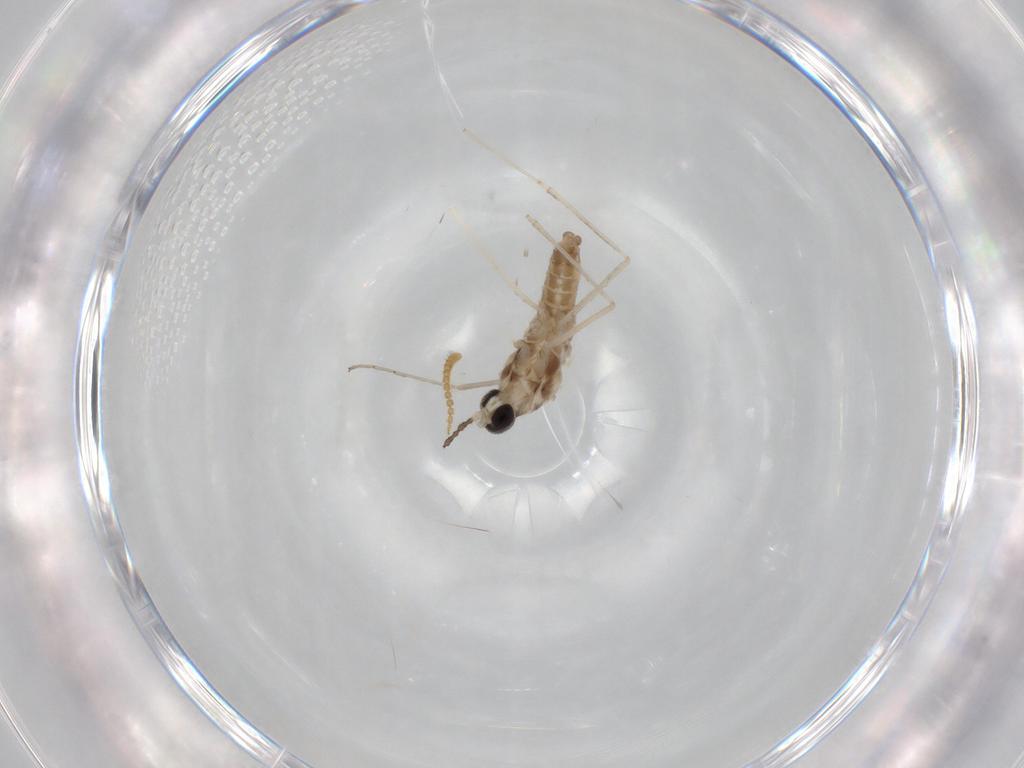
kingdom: Animalia
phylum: Arthropoda
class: Insecta
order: Diptera
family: Cecidomyiidae
